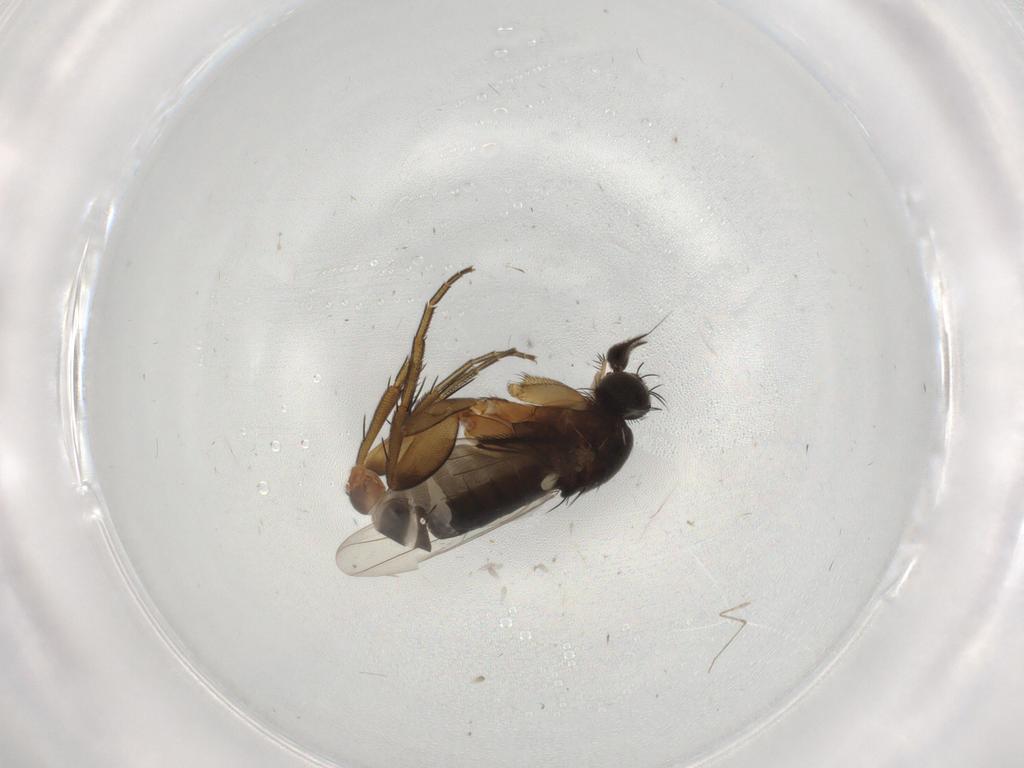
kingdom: Animalia
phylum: Arthropoda
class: Insecta
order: Diptera
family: Phoridae
